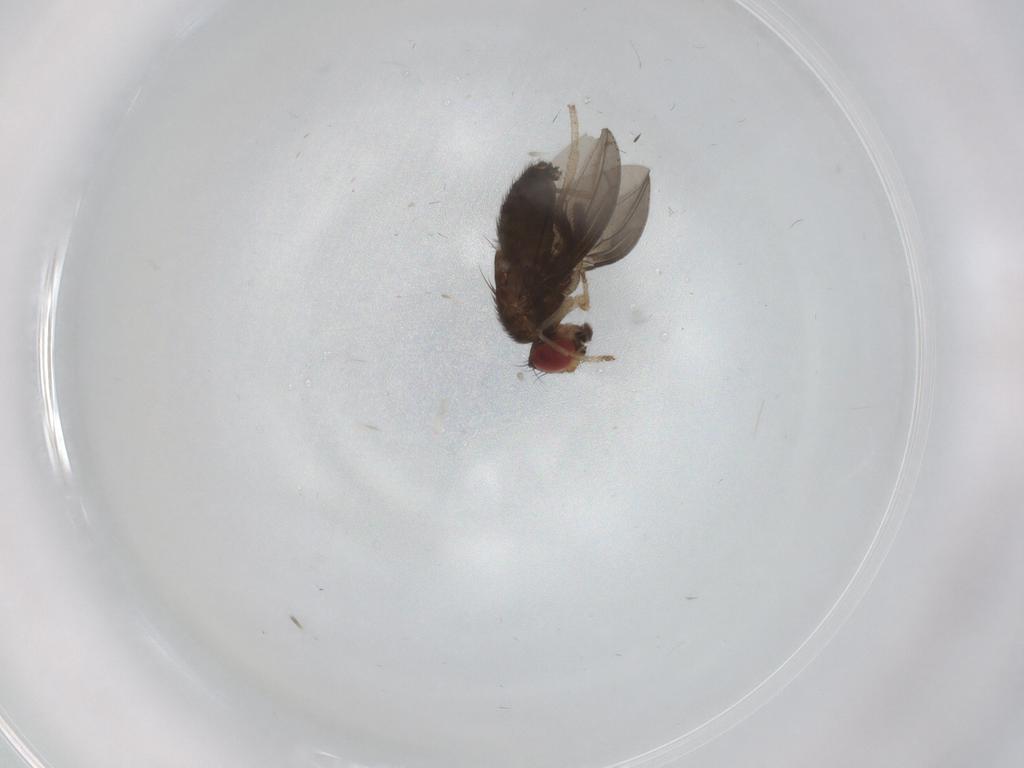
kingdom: Animalia
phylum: Arthropoda
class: Insecta
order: Diptera
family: Drosophilidae
